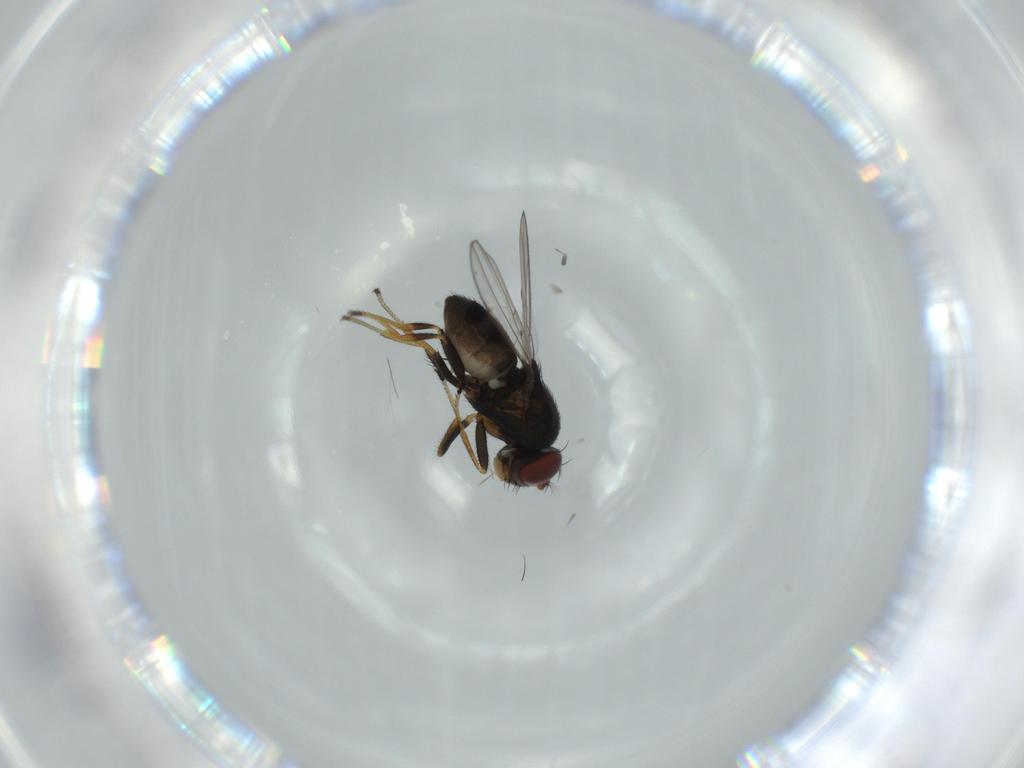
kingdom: Animalia
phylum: Arthropoda
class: Insecta
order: Diptera
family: Ephydridae
